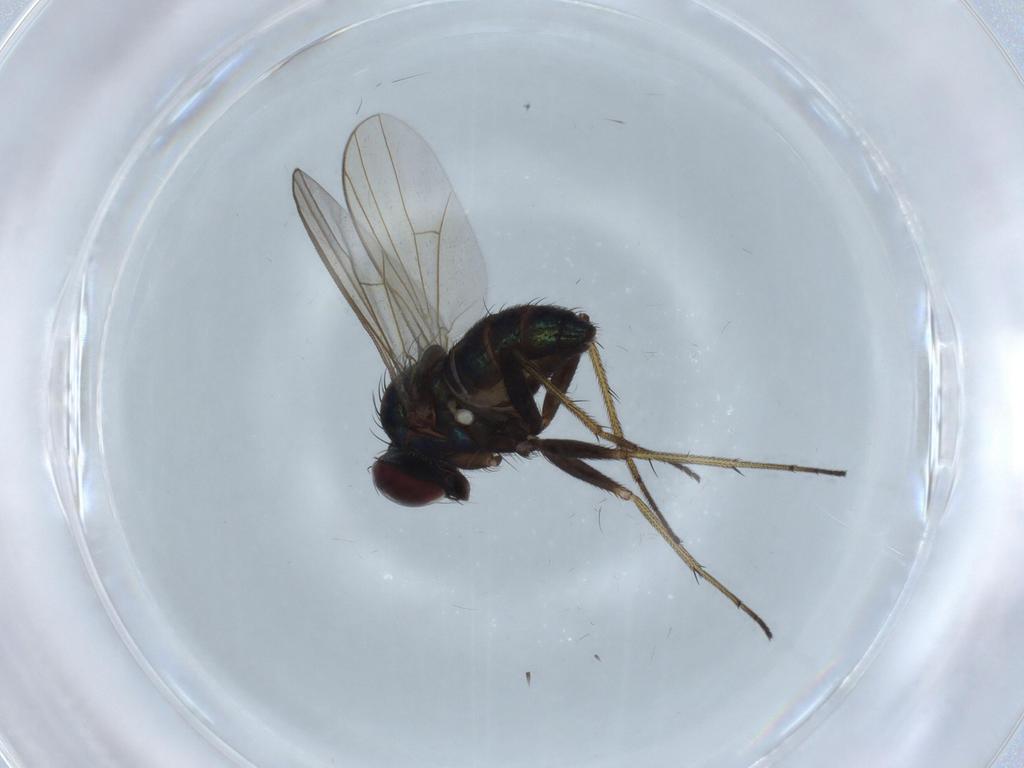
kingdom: Animalia
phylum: Arthropoda
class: Insecta
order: Diptera
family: Dolichopodidae
